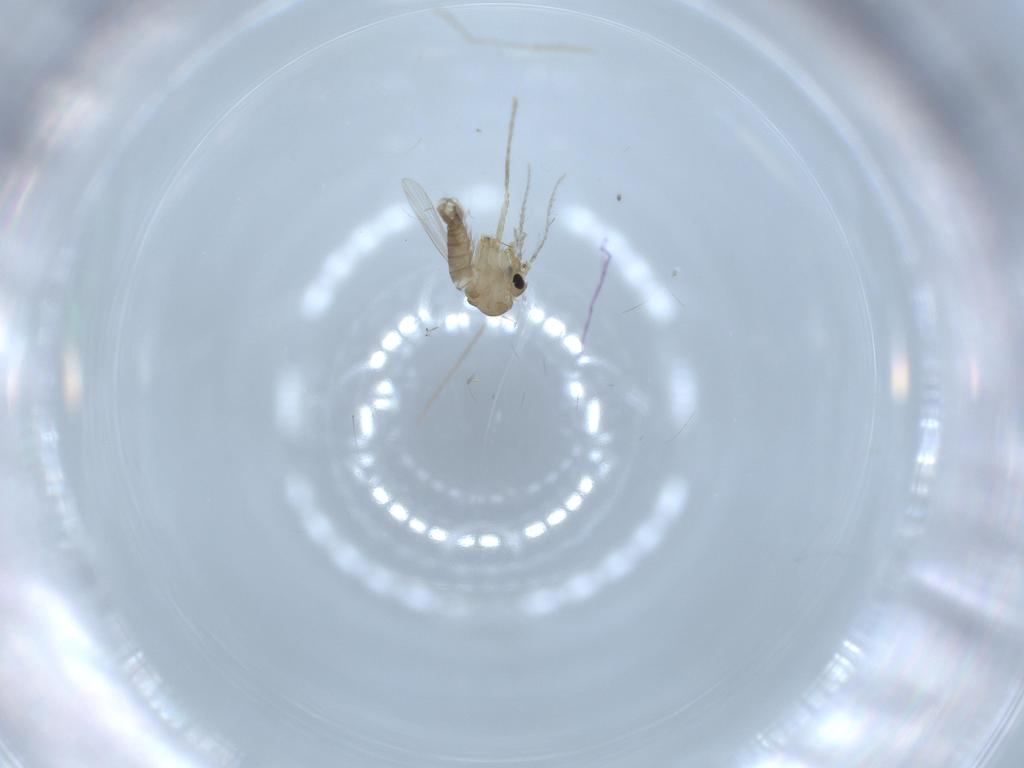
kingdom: Animalia
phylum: Arthropoda
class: Insecta
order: Diptera
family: Psychodidae
